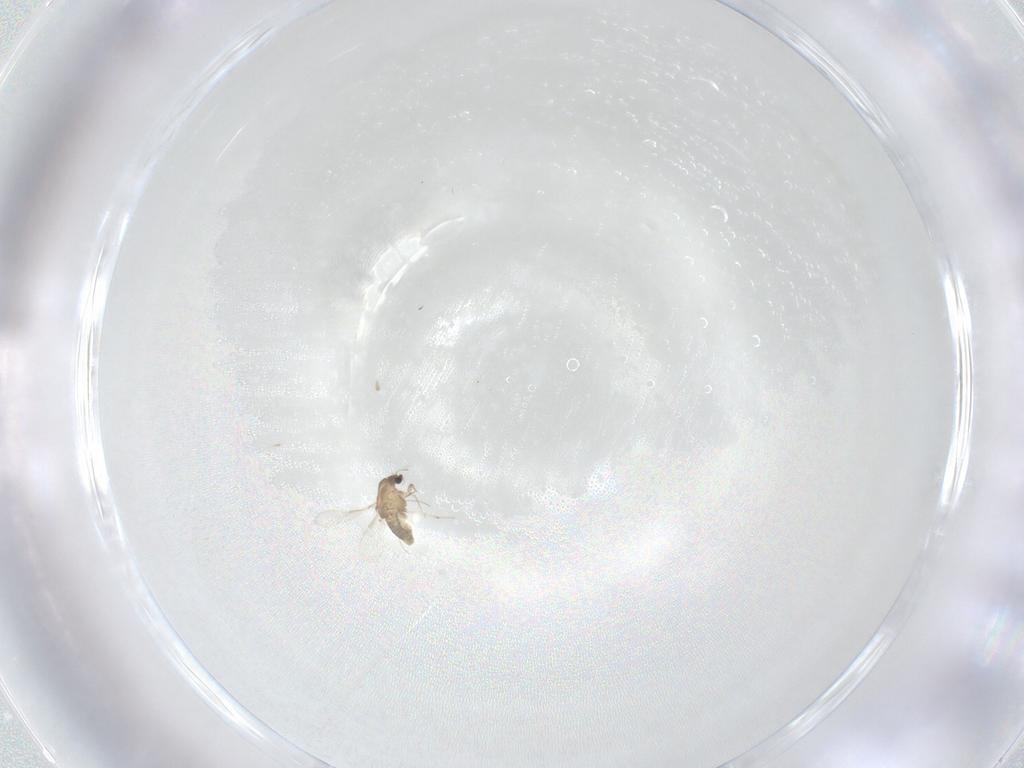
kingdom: Animalia
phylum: Arthropoda
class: Insecta
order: Diptera
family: Chironomidae
